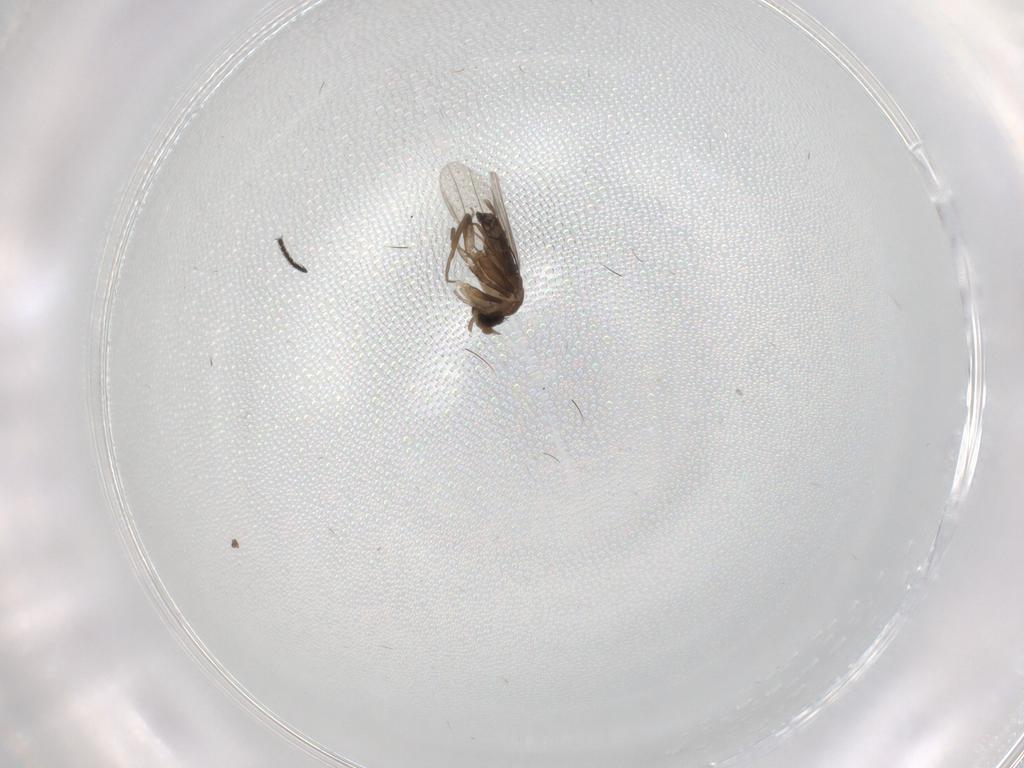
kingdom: Animalia
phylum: Arthropoda
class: Insecta
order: Diptera
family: Phoridae
